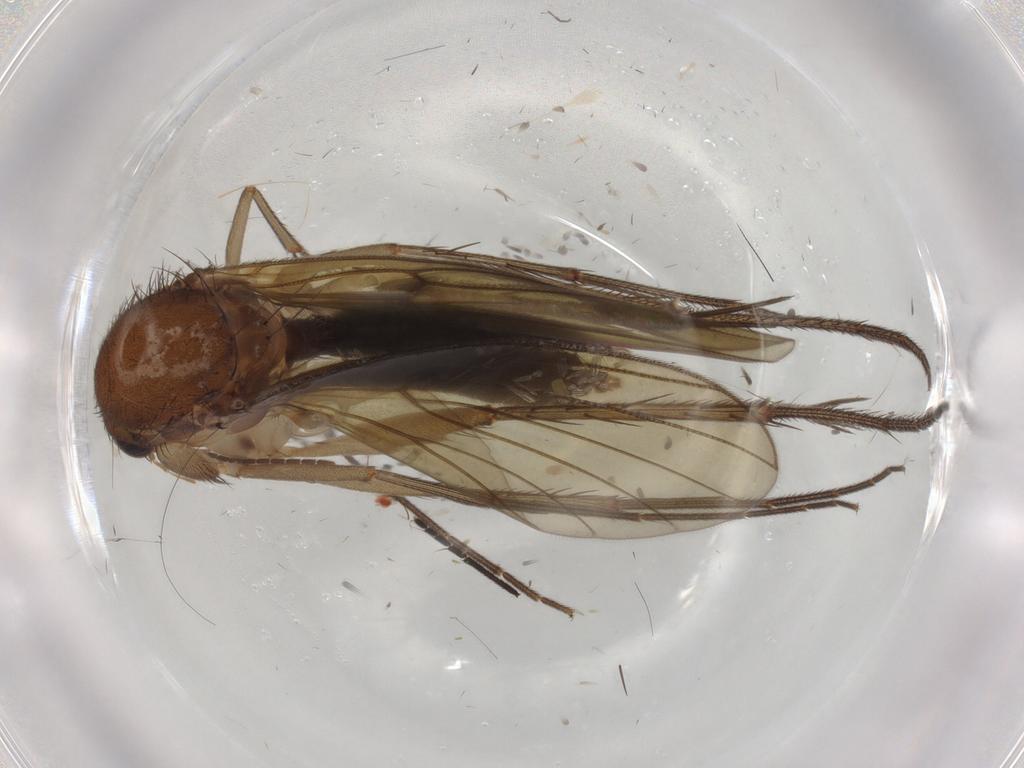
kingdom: Animalia
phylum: Arthropoda
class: Insecta
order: Diptera
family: Mycetophilidae
